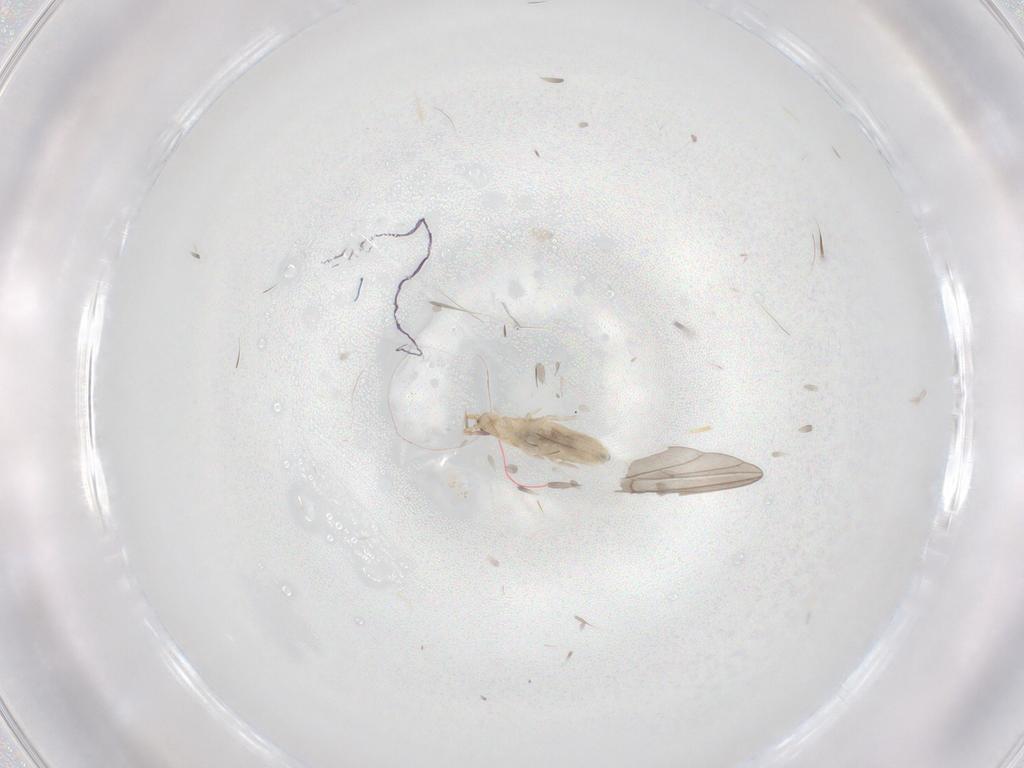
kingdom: Animalia
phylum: Arthropoda
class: Collembola
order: Entomobryomorpha
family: Entomobryidae
